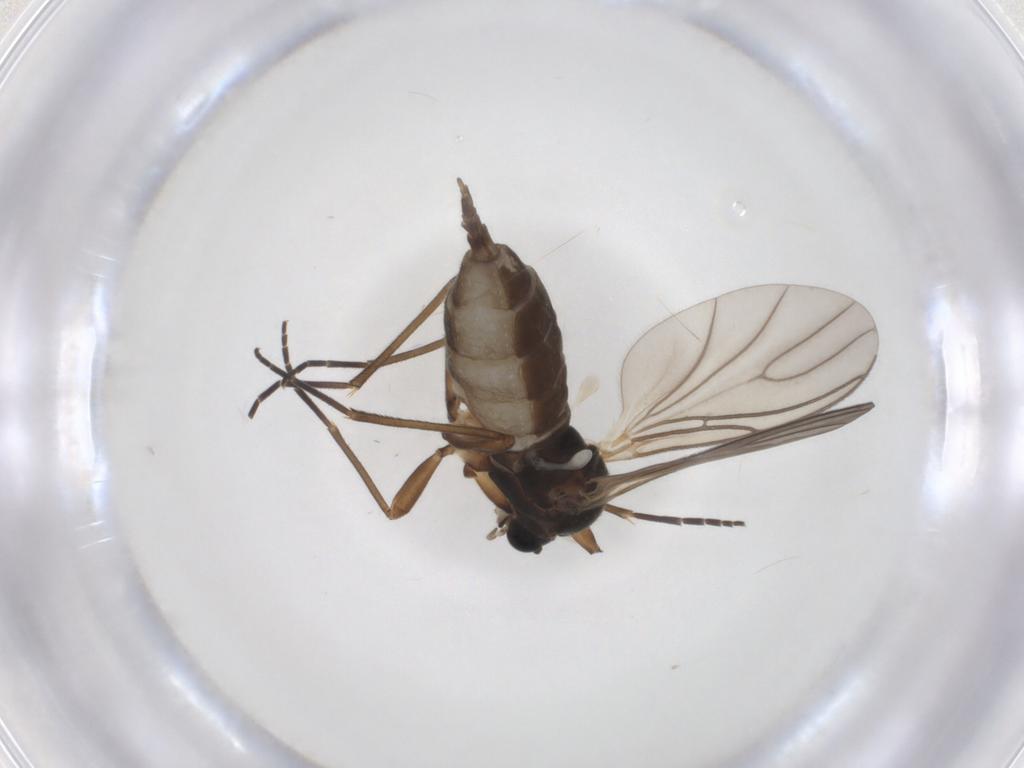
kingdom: Animalia
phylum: Arthropoda
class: Insecta
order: Diptera
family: Sciaridae
